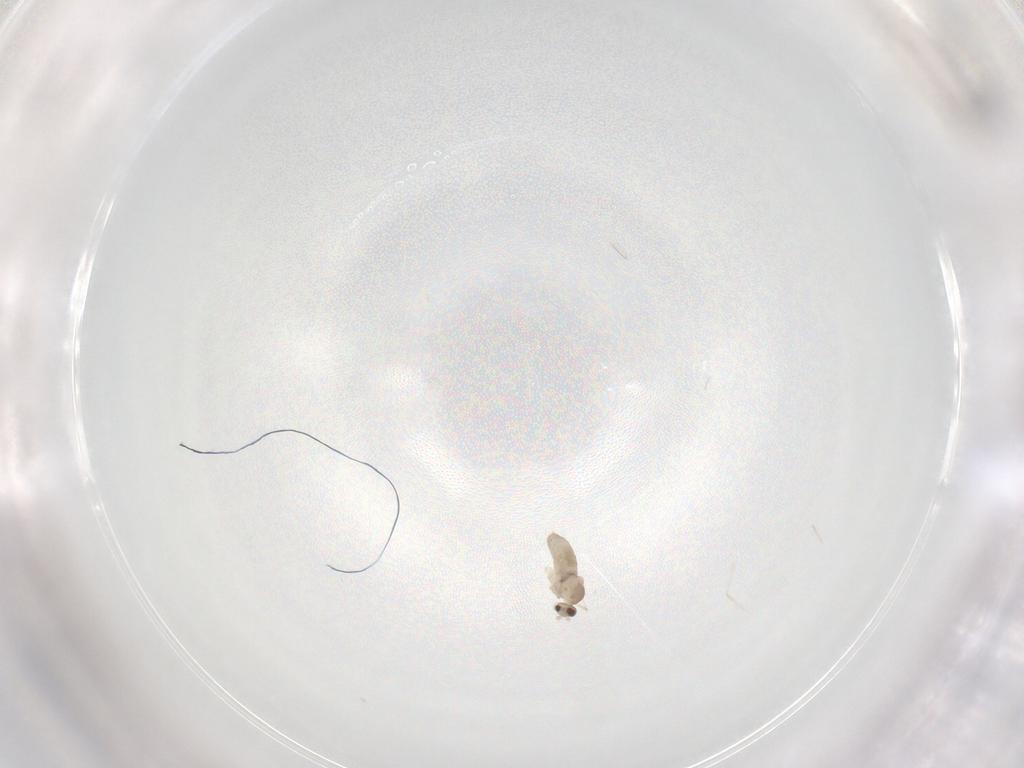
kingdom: Animalia
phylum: Arthropoda
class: Insecta
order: Diptera
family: Cecidomyiidae
